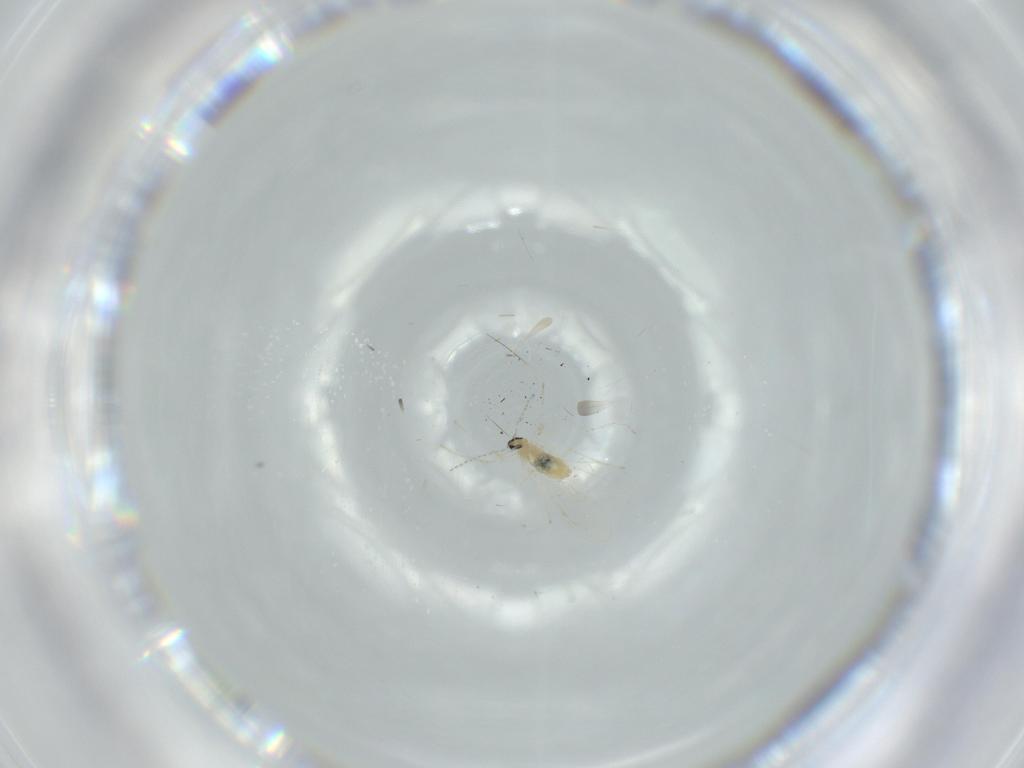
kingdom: Animalia
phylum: Arthropoda
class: Insecta
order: Diptera
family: Cecidomyiidae
